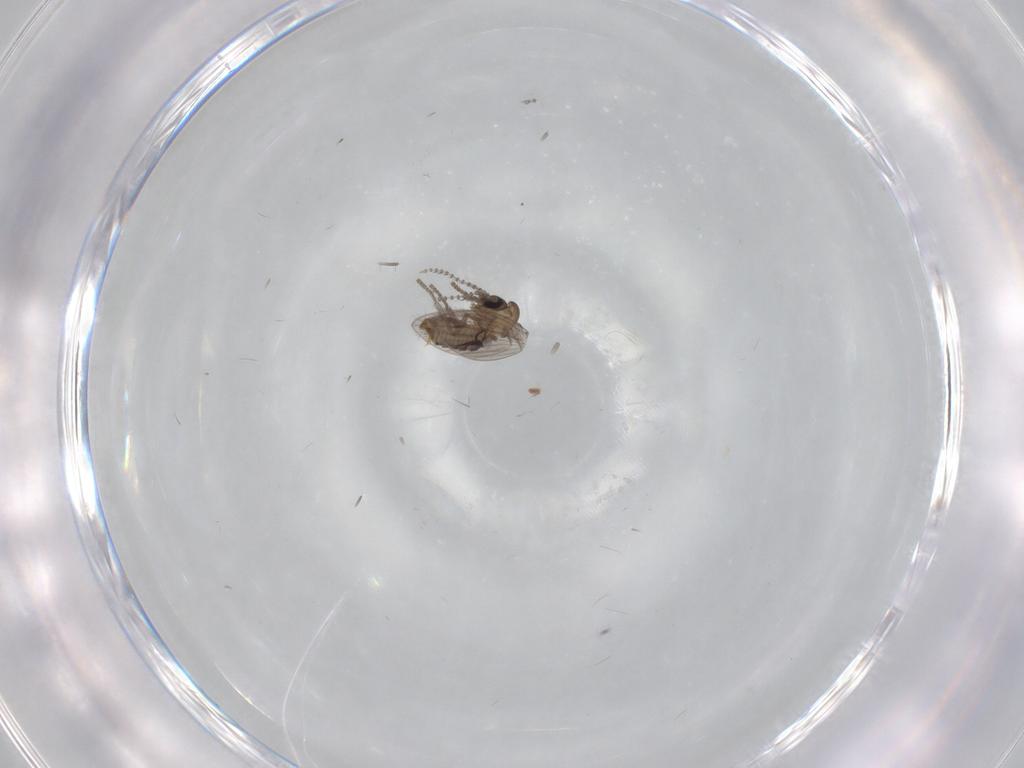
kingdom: Animalia
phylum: Arthropoda
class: Insecta
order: Diptera
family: Psychodidae
